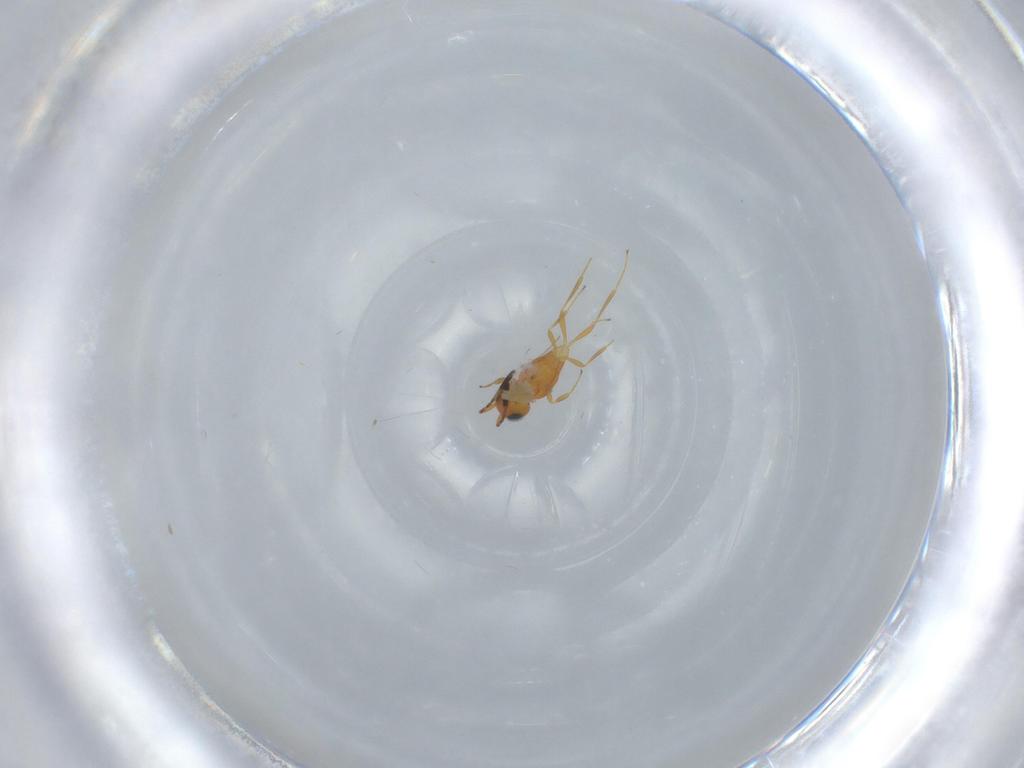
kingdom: Animalia
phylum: Arthropoda
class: Insecta
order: Hymenoptera
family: Scelionidae
